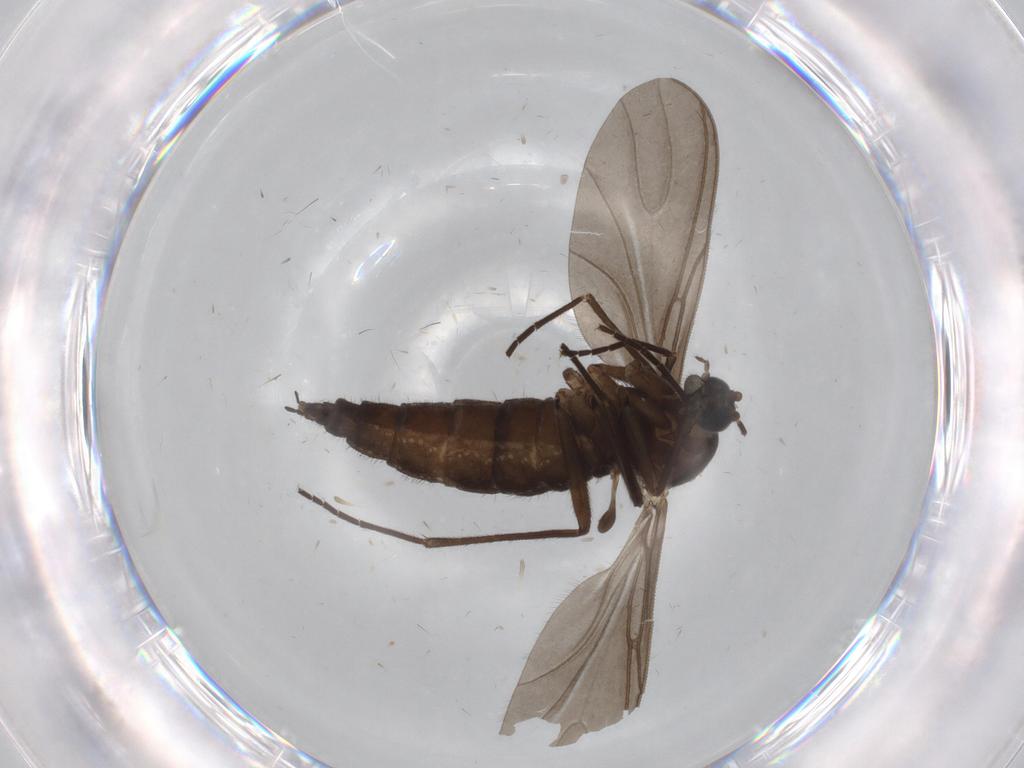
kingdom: Animalia
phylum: Arthropoda
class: Insecta
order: Diptera
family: Sciaridae
